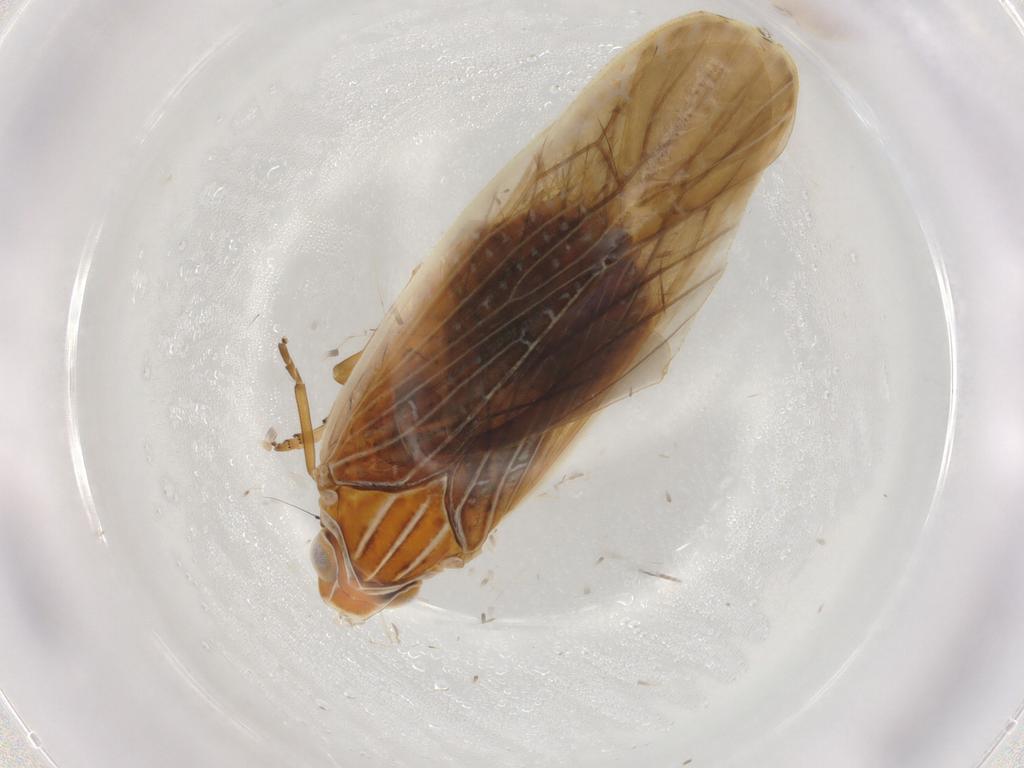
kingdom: Animalia
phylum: Arthropoda
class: Insecta
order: Hemiptera
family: Achilidae
